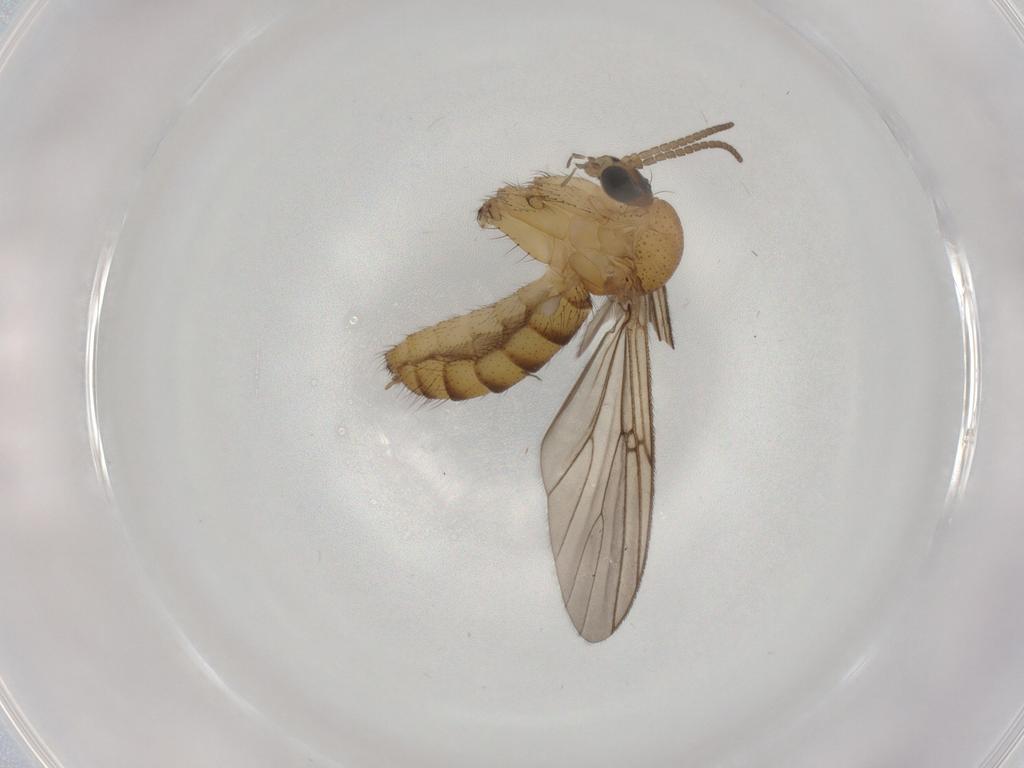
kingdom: Animalia
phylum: Arthropoda
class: Insecta
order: Diptera
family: Mycetophilidae
